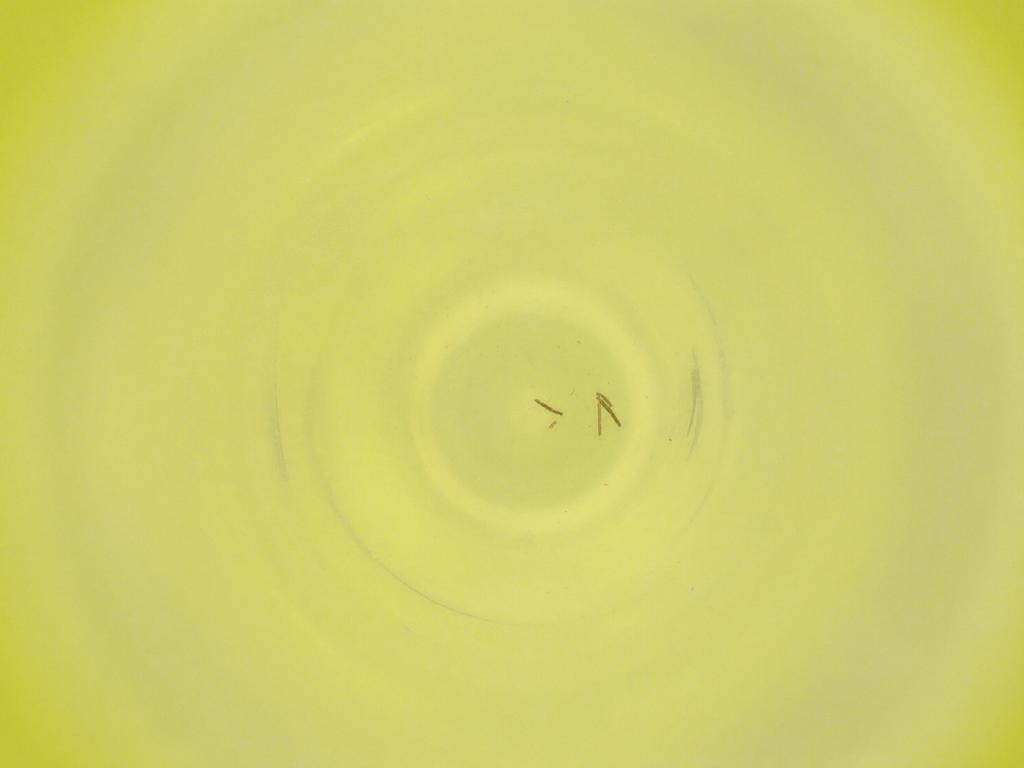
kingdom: Animalia
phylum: Arthropoda
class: Insecta
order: Diptera
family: Cecidomyiidae
